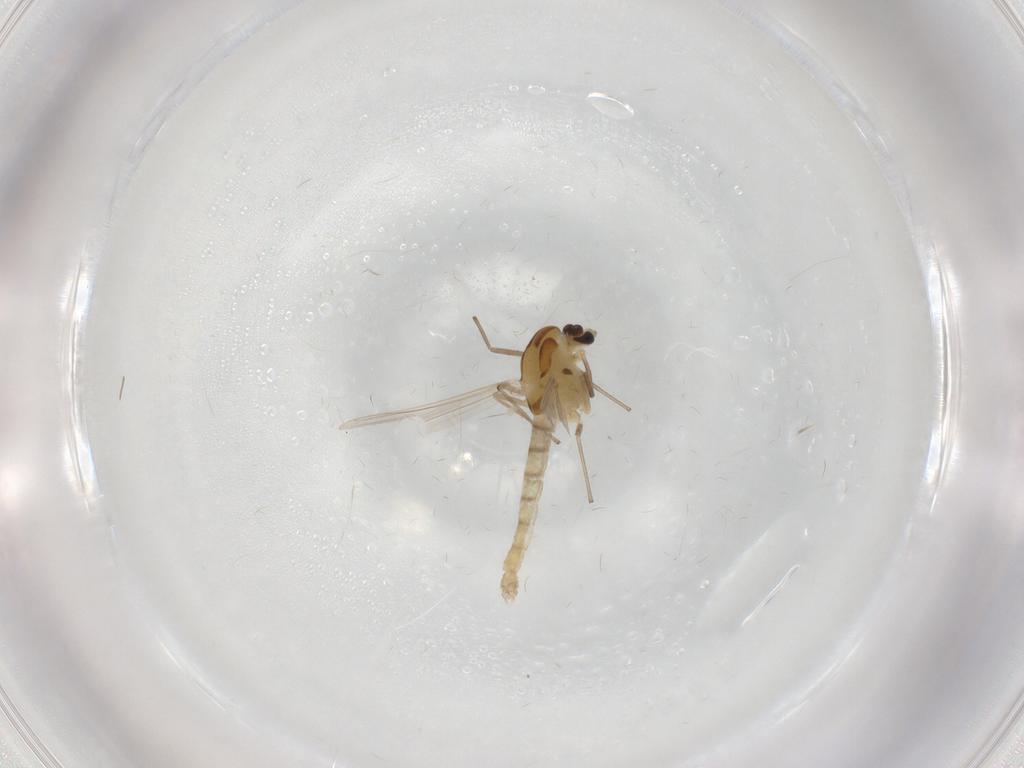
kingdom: Animalia
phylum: Arthropoda
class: Insecta
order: Diptera
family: Chironomidae
